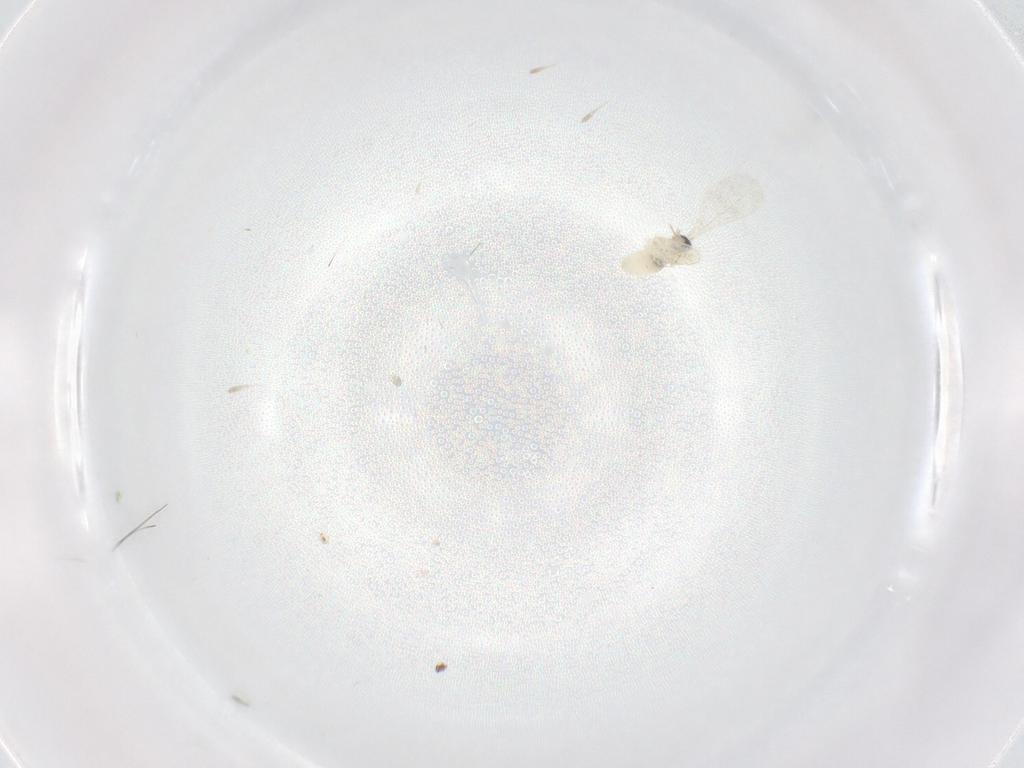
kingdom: Animalia
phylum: Arthropoda
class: Insecta
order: Diptera
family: Cecidomyiidae
